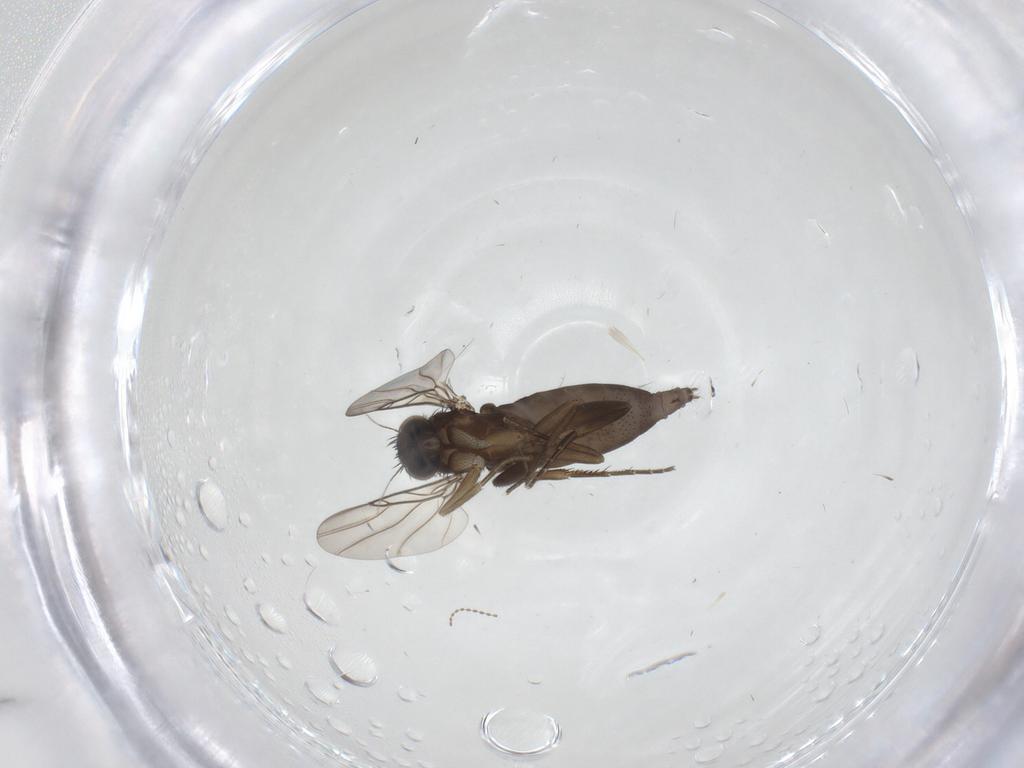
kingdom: Animalia
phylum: Arthropoda
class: Insecta
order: Diptera
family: Phoridae
